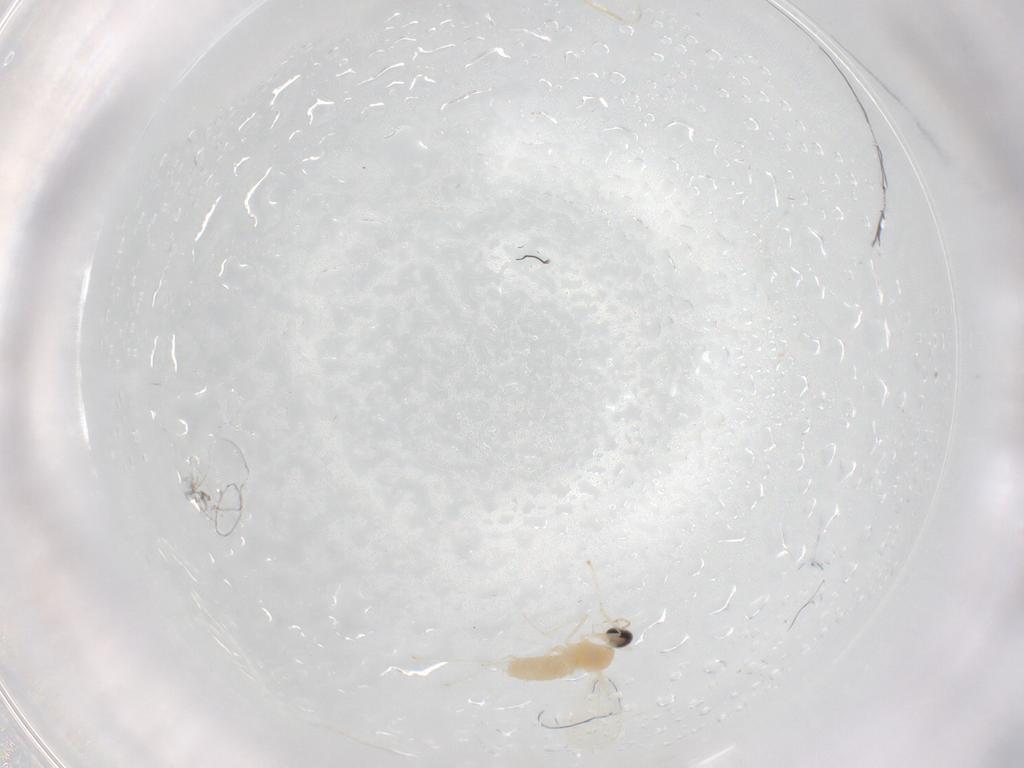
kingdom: Animalia
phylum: Arthropoda
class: Insecta
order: Diptera
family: Cecidomyiidae
